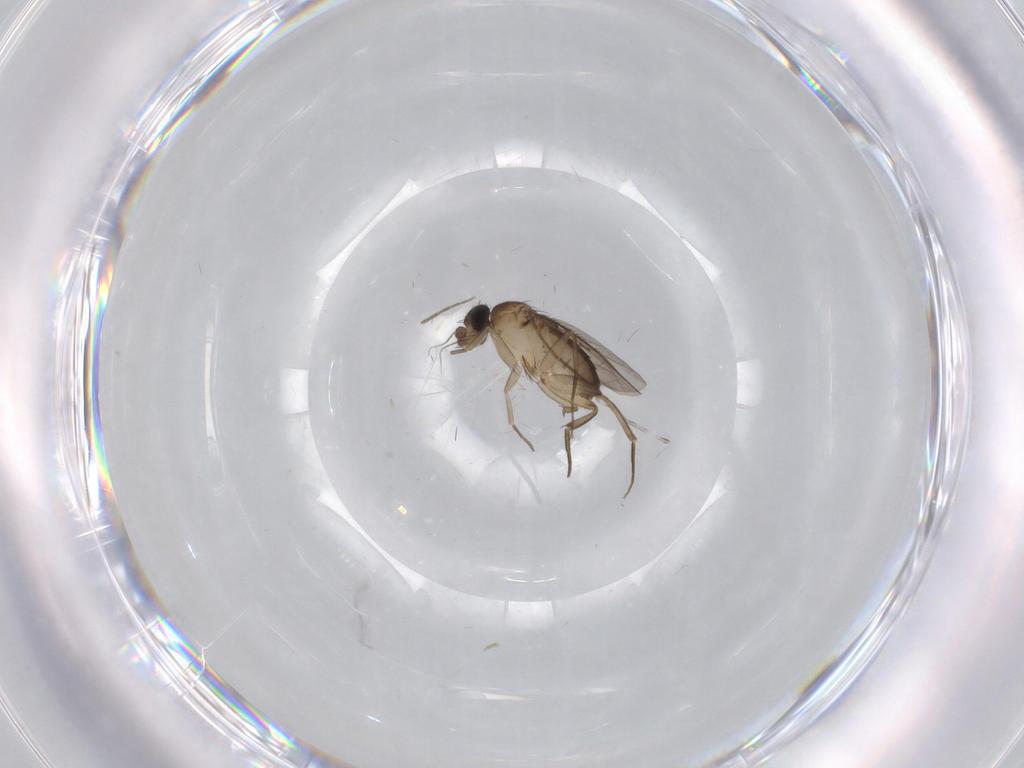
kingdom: Animalia
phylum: Arthropoda
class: Insecta
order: Diptera
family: Phoridae
